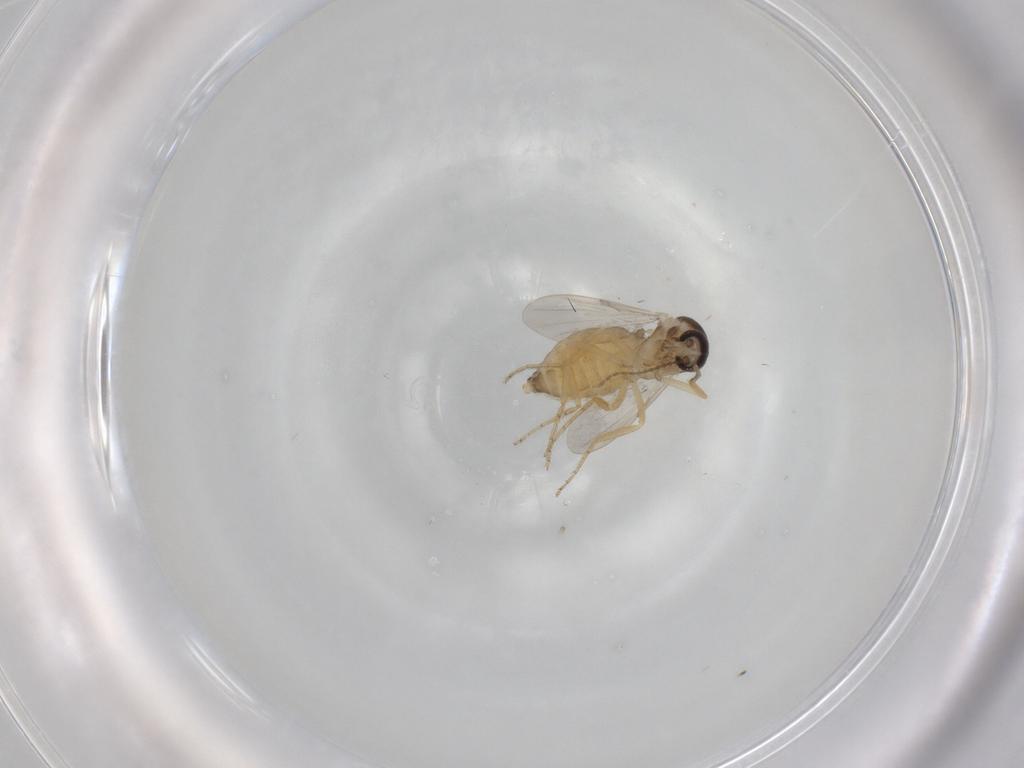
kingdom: Animalia
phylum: Arthropoda
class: Insecta
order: Diptera
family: Ceratopogonidae
